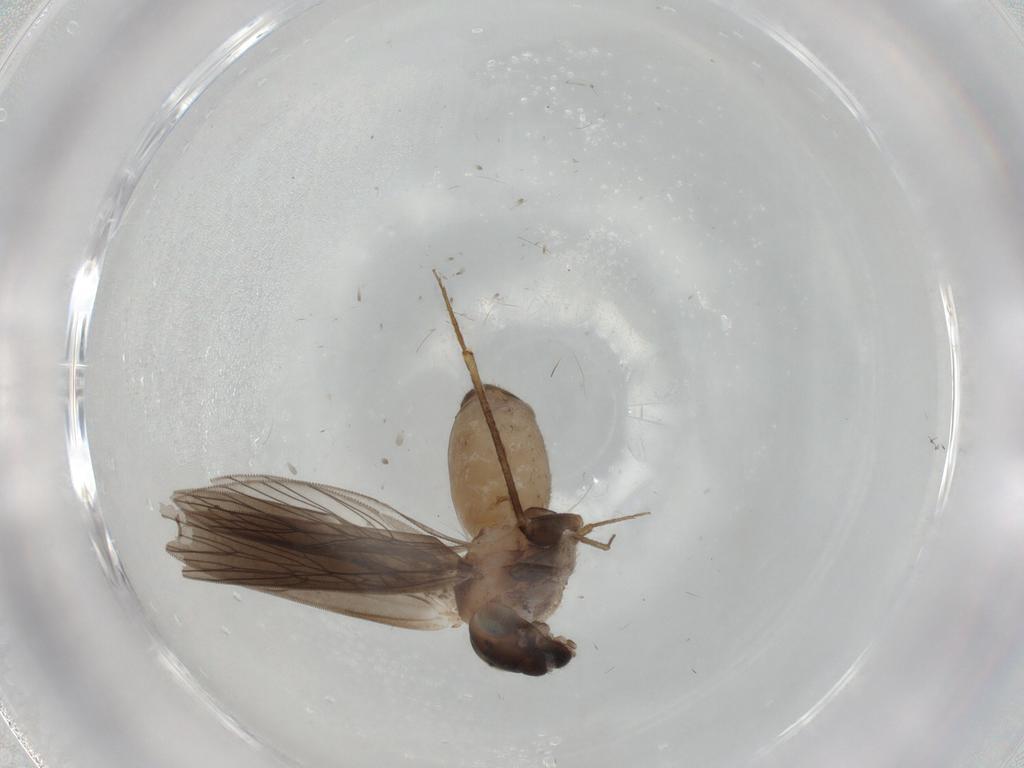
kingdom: Animalia
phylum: Arthropoda
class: Insecta
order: Psocodea
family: Lepidopsocidae
